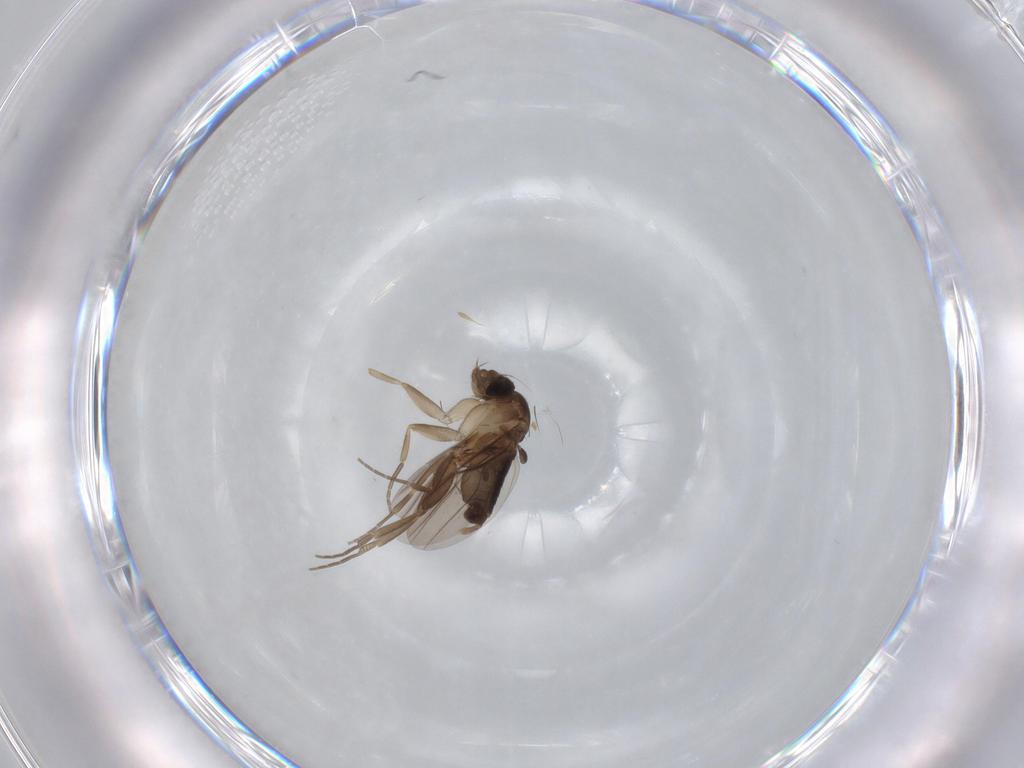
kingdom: Animalia
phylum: Arthropoda
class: Insecta
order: Diptera
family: Phoridae
